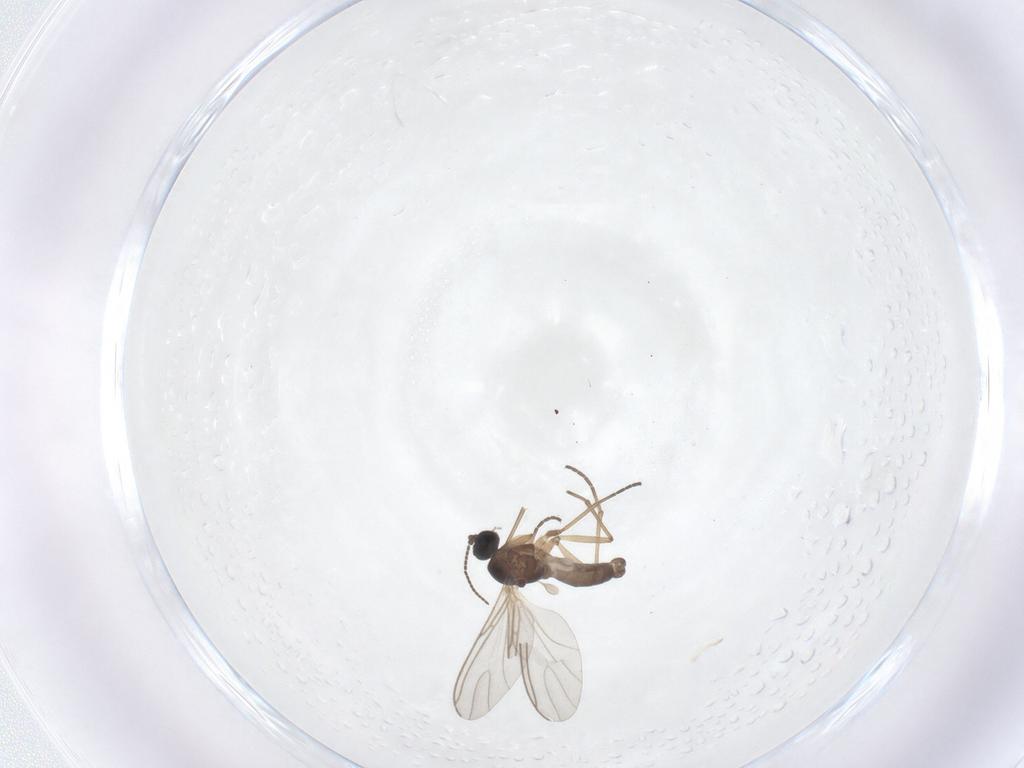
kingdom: Animalia
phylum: Arthropoda
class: Insecta
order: Diptera
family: Sciaridae
